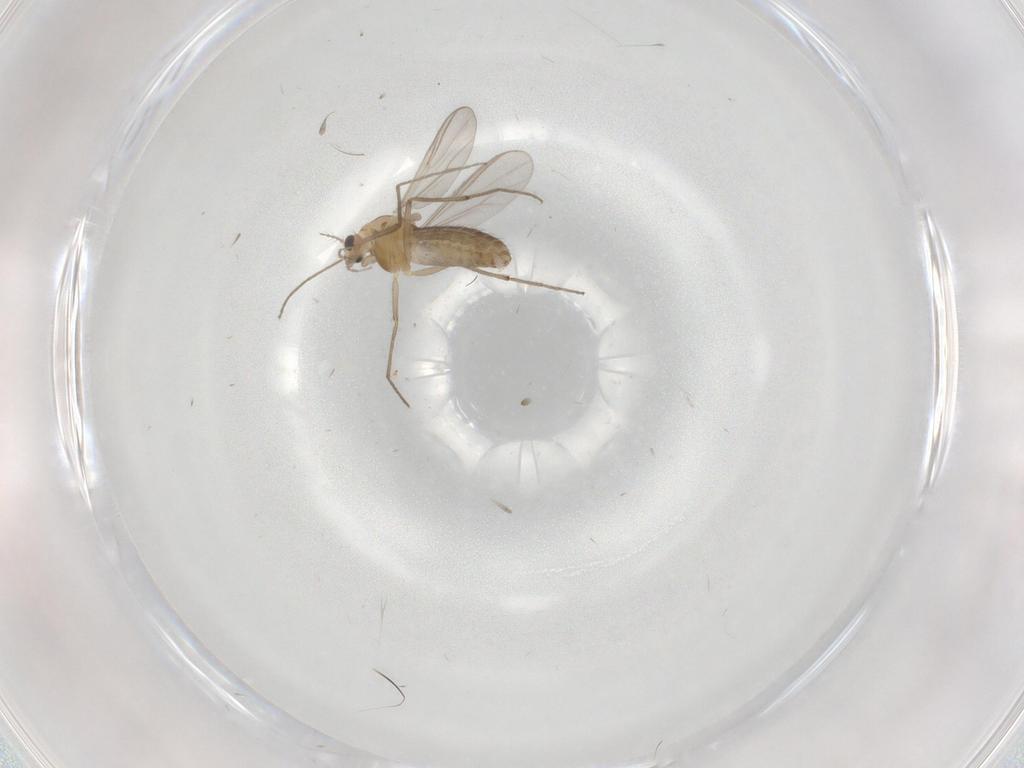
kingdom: Animalia
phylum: Arthropoda
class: Insecta
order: Diptera
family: Chironomidae
